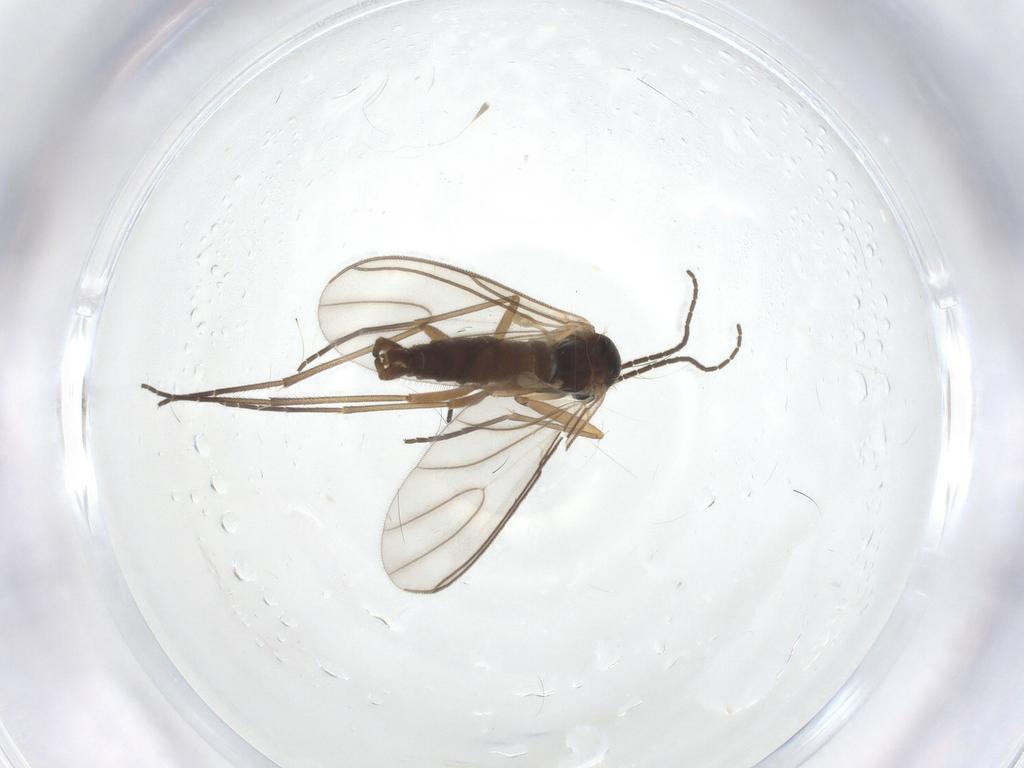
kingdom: Animalia
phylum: Arthropoda
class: Insecta
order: Diptera
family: Sciaridae
